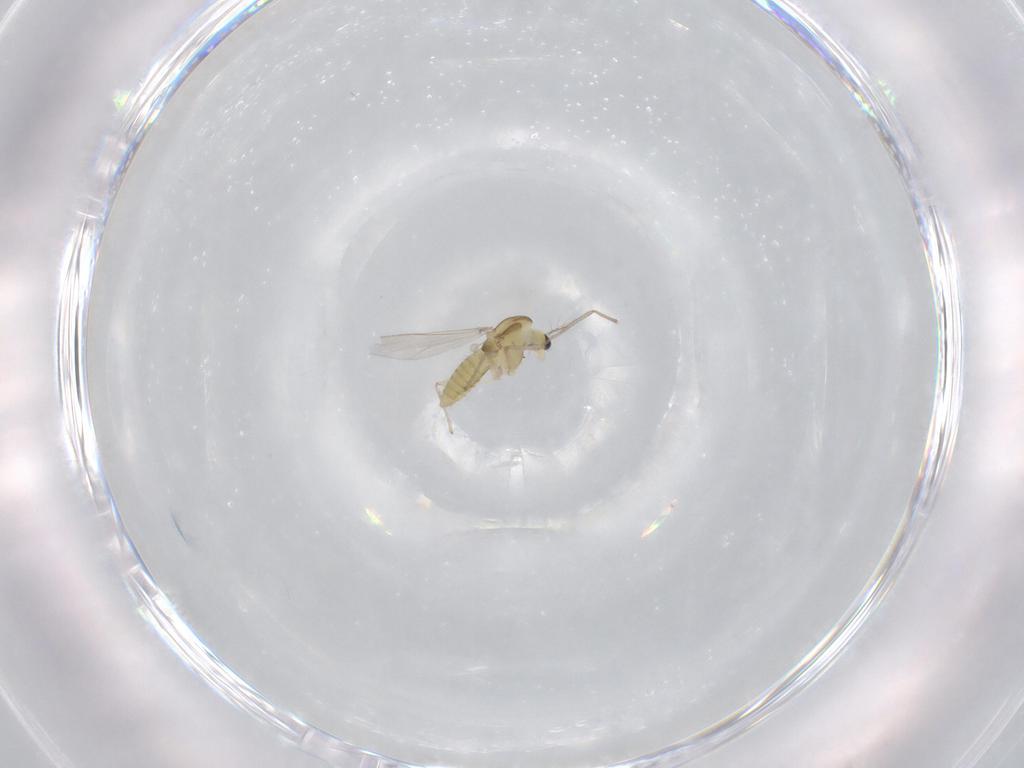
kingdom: Animalia
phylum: Arthropoda
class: Insecta
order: Diptera
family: Chironomidae
